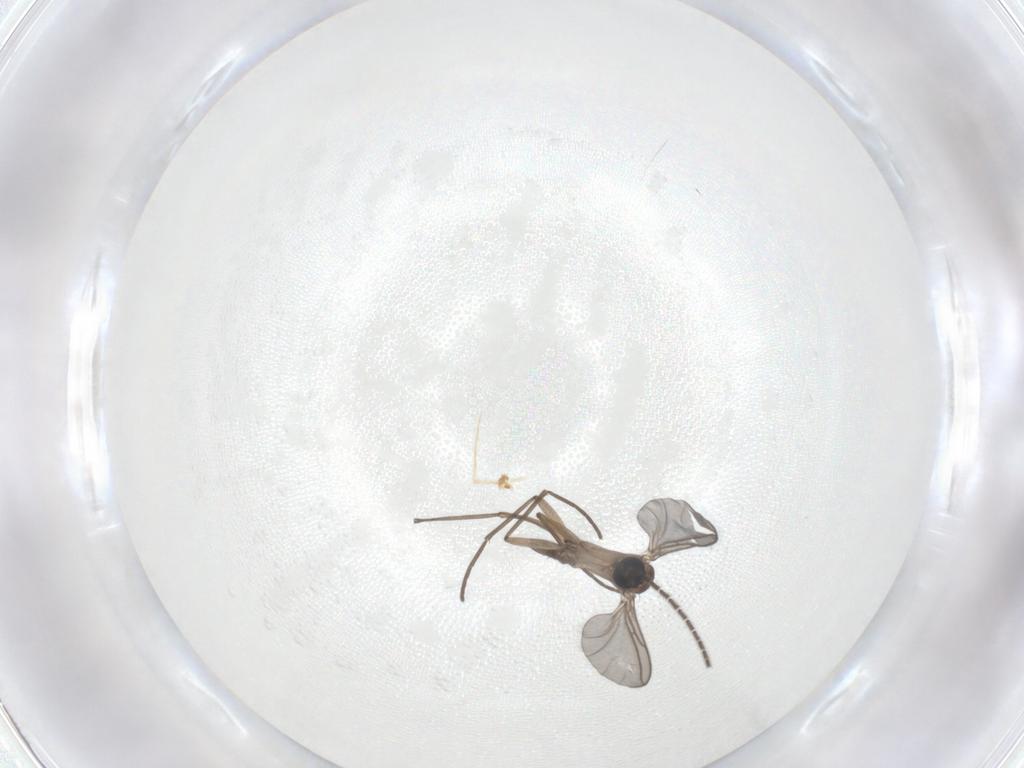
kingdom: Animalia
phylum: Arthropoda
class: Insecta
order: Diptera
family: Sciaridae
